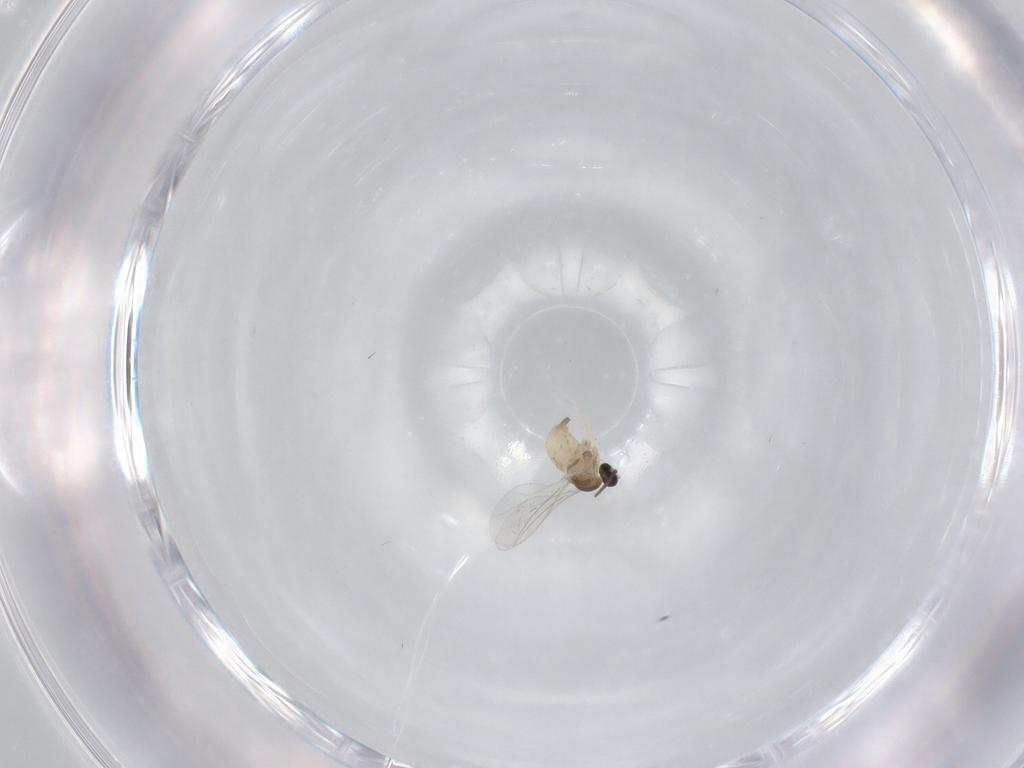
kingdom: Animalia
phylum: Arthropoda
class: Insecta
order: Diptera
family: Cecidomyiidae
